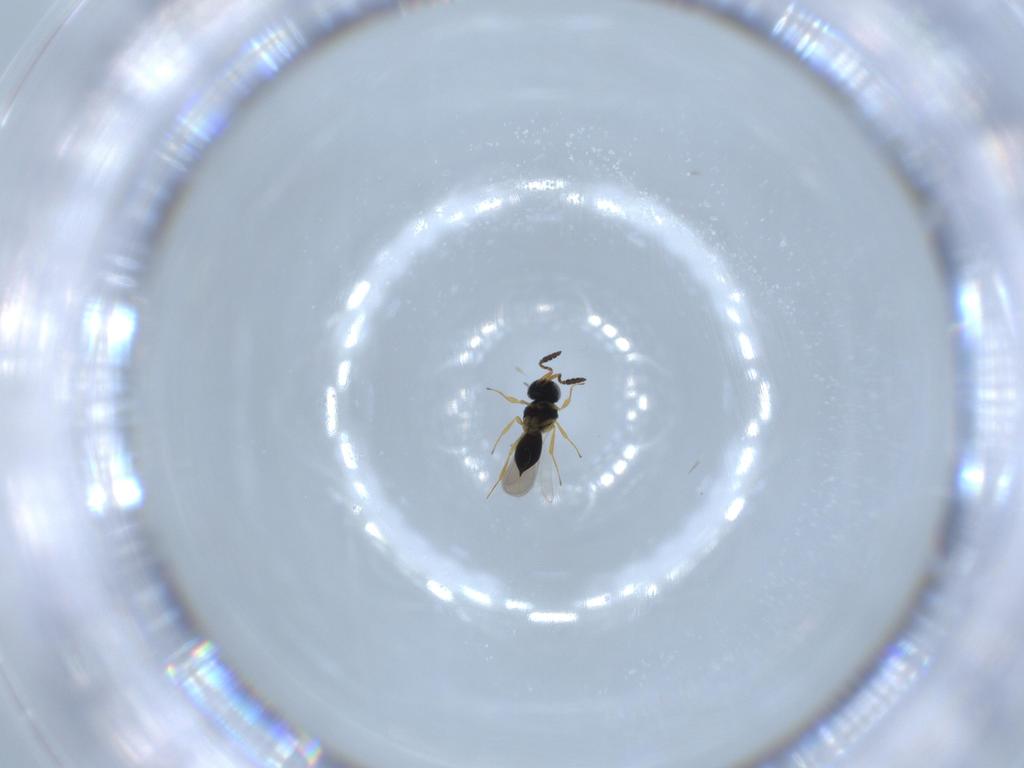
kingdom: Animalia
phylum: Arthropoda
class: Insecta
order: Hymenoptera
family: Scelionidae
